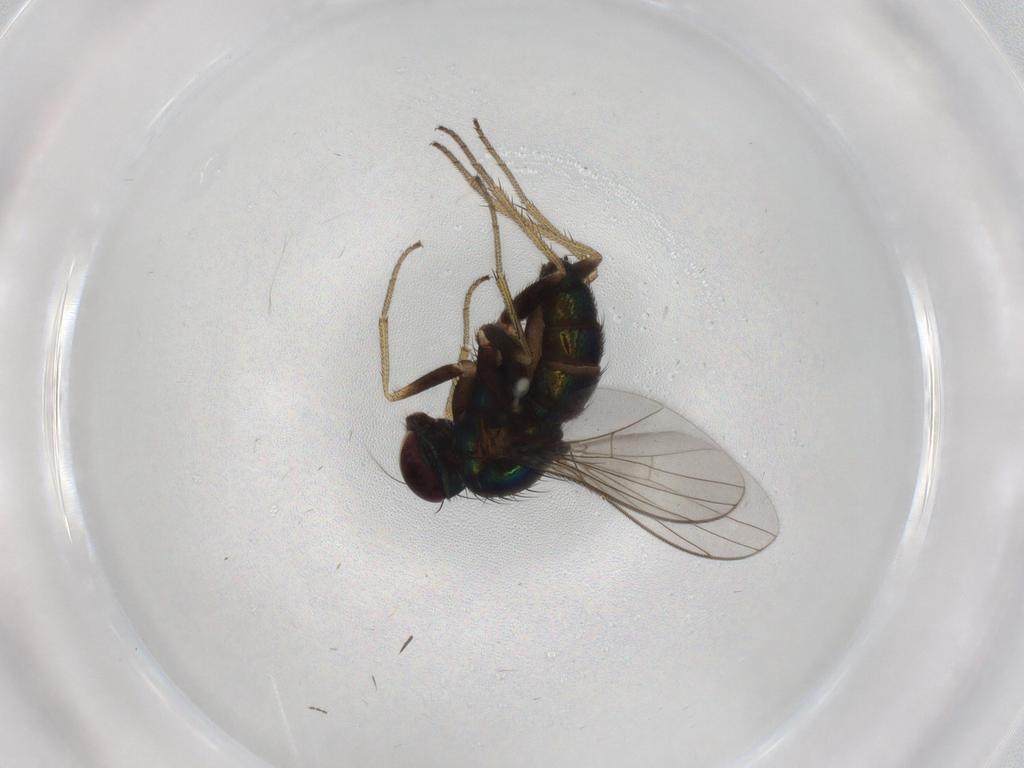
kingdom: Animalia
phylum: Arthropoda
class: Insecta
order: Diptera
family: Dolichopodidae
